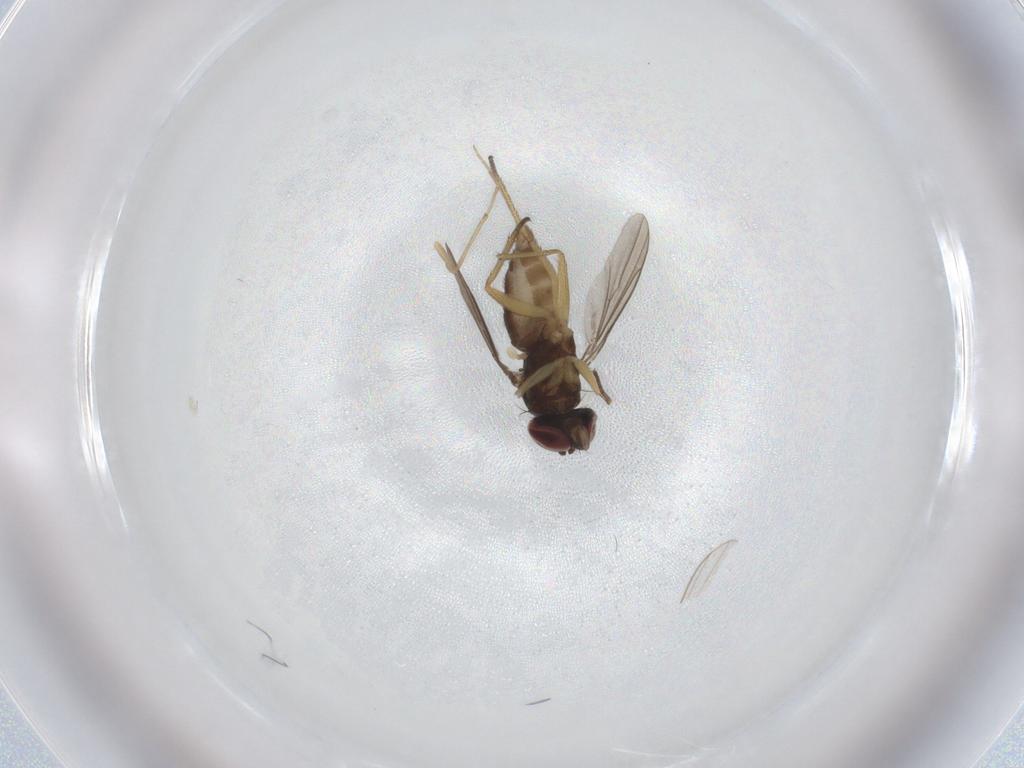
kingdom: Animalia
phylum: Arthropoda
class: Insecta
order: Diptera
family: Dolichopodidae
